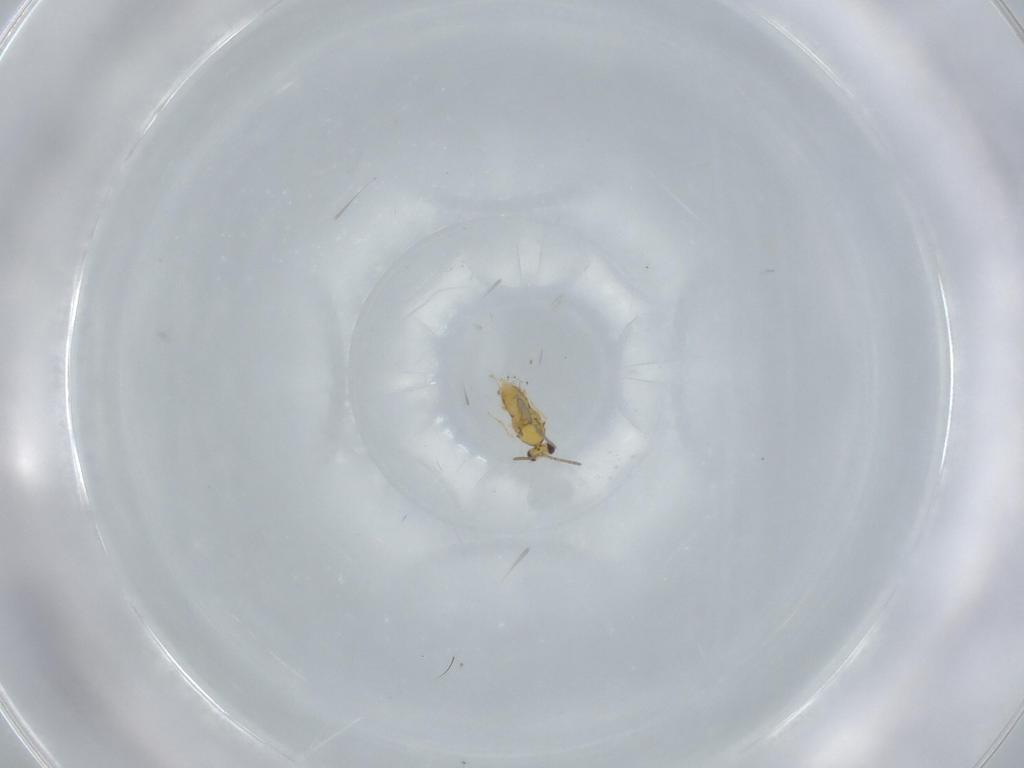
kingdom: Animalia
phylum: Arthropoda
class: Insecta
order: Hymenoptera
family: Aphelinidae
